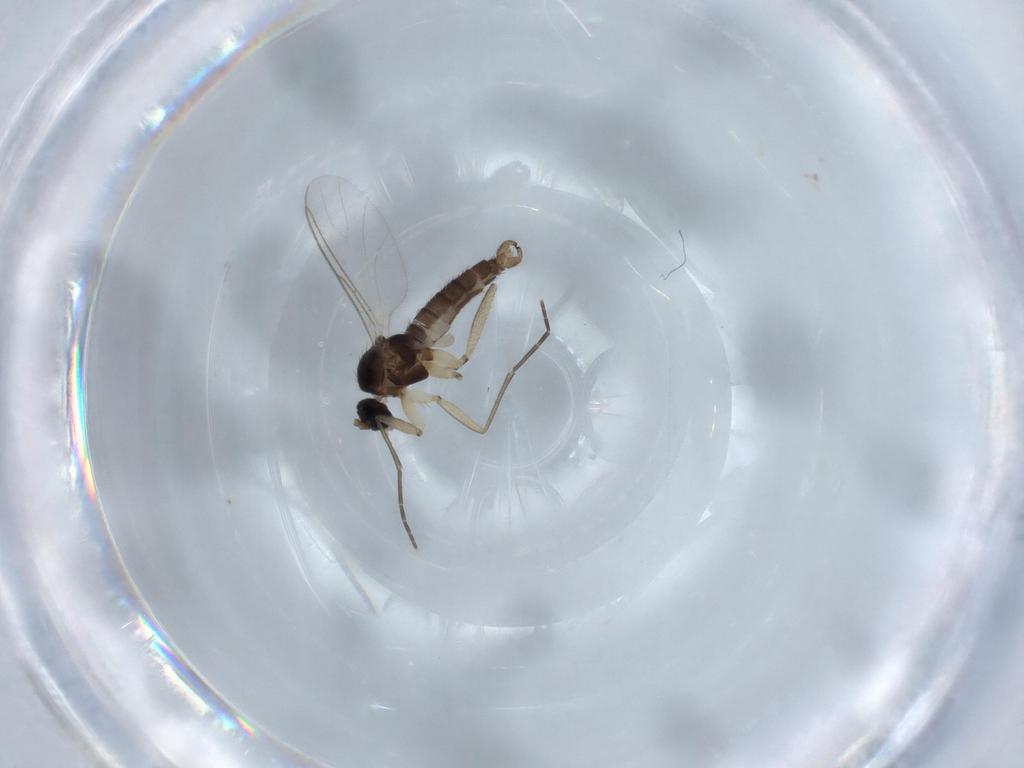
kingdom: Animalia
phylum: Arthropoda
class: Insecta
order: Diptera
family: Sciaridae
